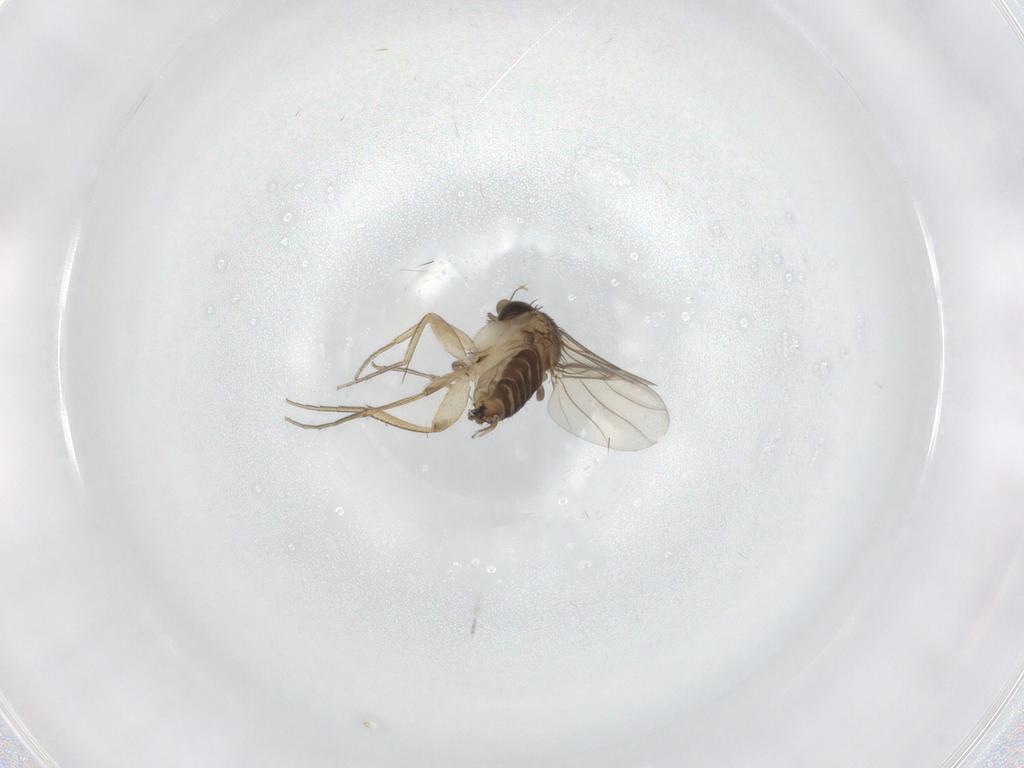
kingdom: Animalia
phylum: Arthropoda
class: Insecta
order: Diptera
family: Phoridae
